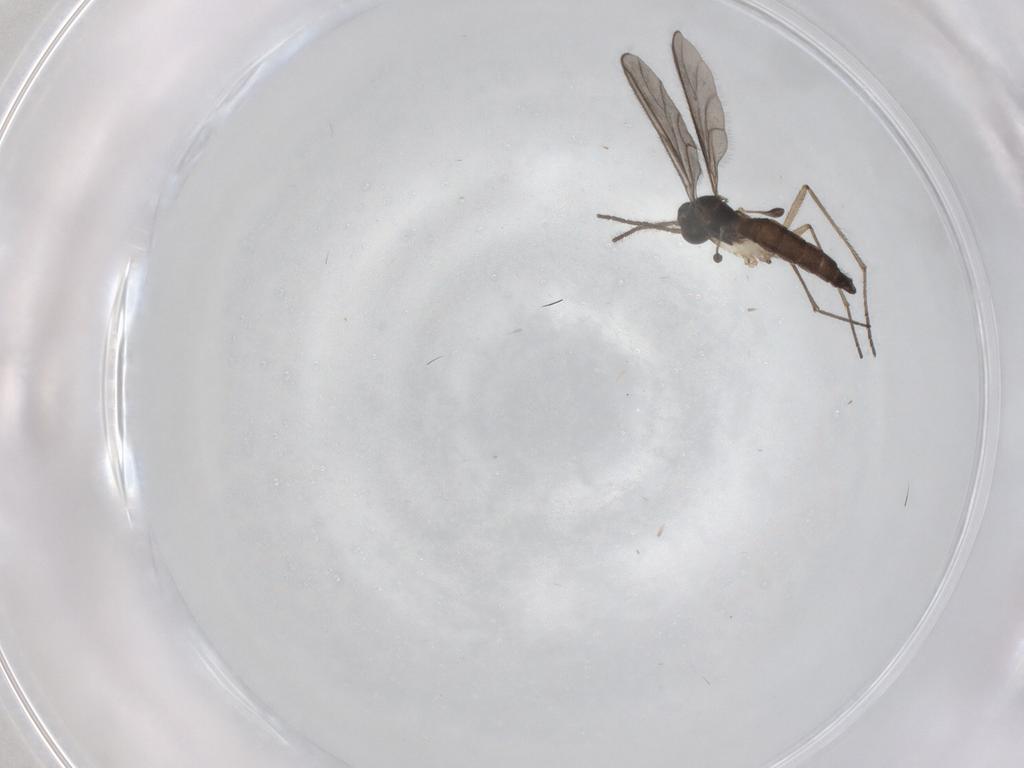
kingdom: Animalia
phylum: Arthropoda
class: Insecta
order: Diptera
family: Sciaridae
